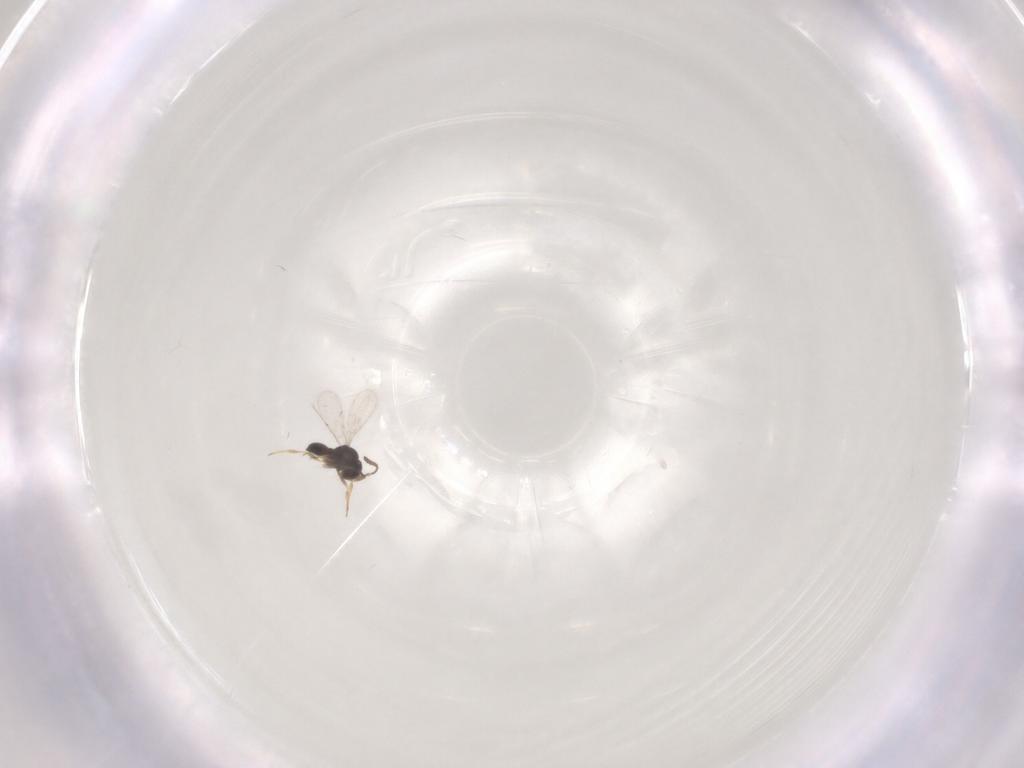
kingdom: Animalia
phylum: Arthropoda
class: Insecta
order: Hymenoptera
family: Scelionidae
